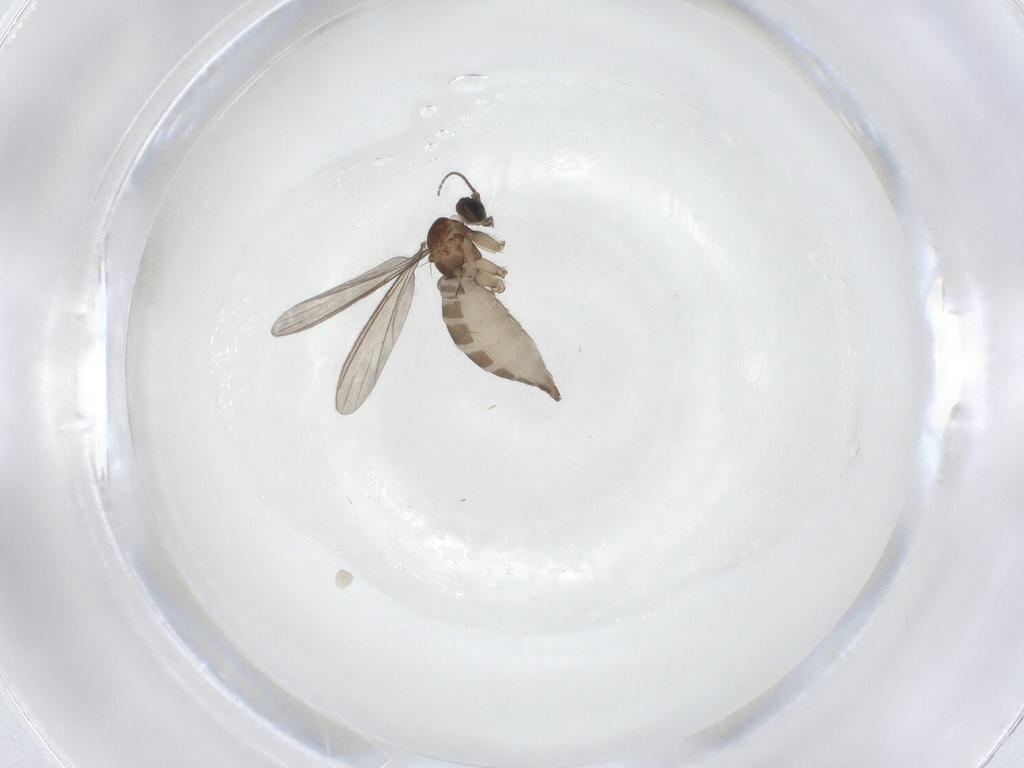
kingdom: Animalia
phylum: Arthropoda
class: Insecta
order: Diptera
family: Sciaridae
